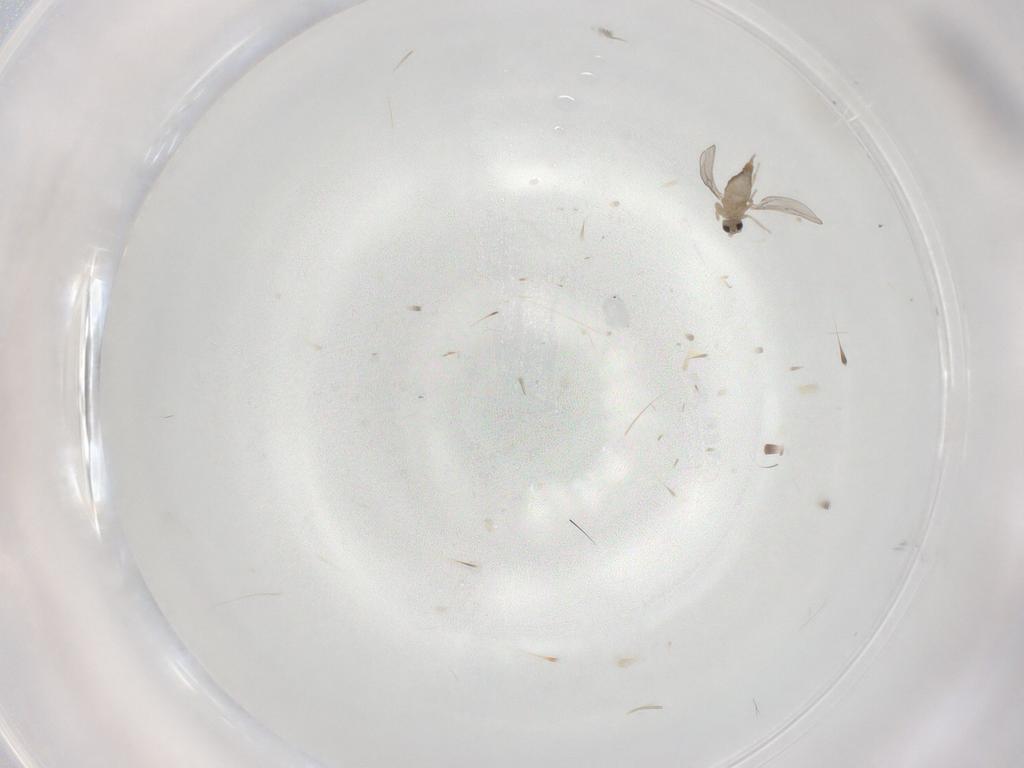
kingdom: Animalia
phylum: Arthropoda
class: Insecta
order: Diptera
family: Cecidomyiidae
